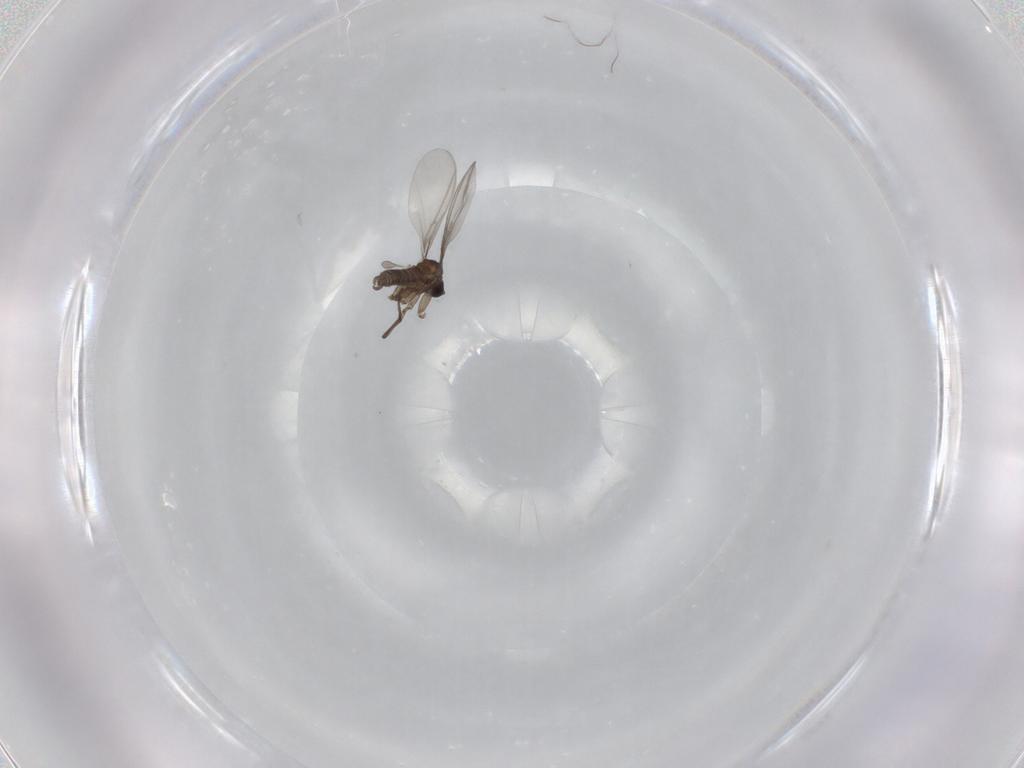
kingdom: Animalia
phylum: Arthropoda
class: Insecta
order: Diptera
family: Sciaridae
